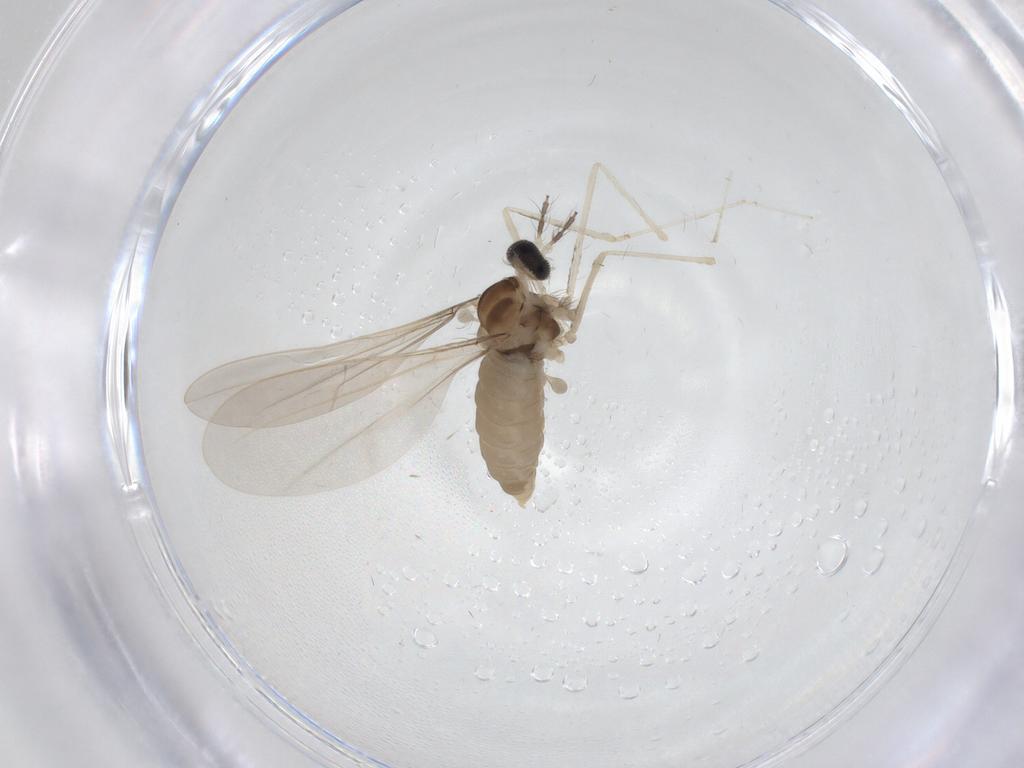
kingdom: Animalia
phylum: Arthropoda
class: Insecta
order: Diptera
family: Cecidomyiidae
